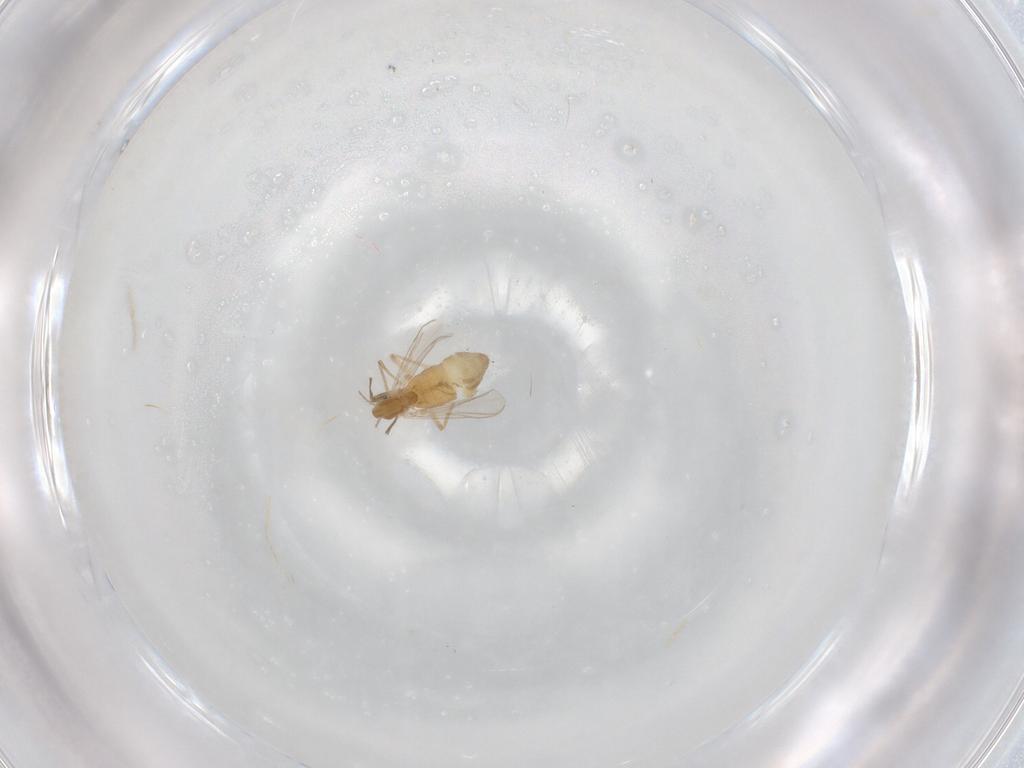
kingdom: Animalia
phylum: Arthropoda
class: Insecta
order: Diptera
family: Chironomidae
